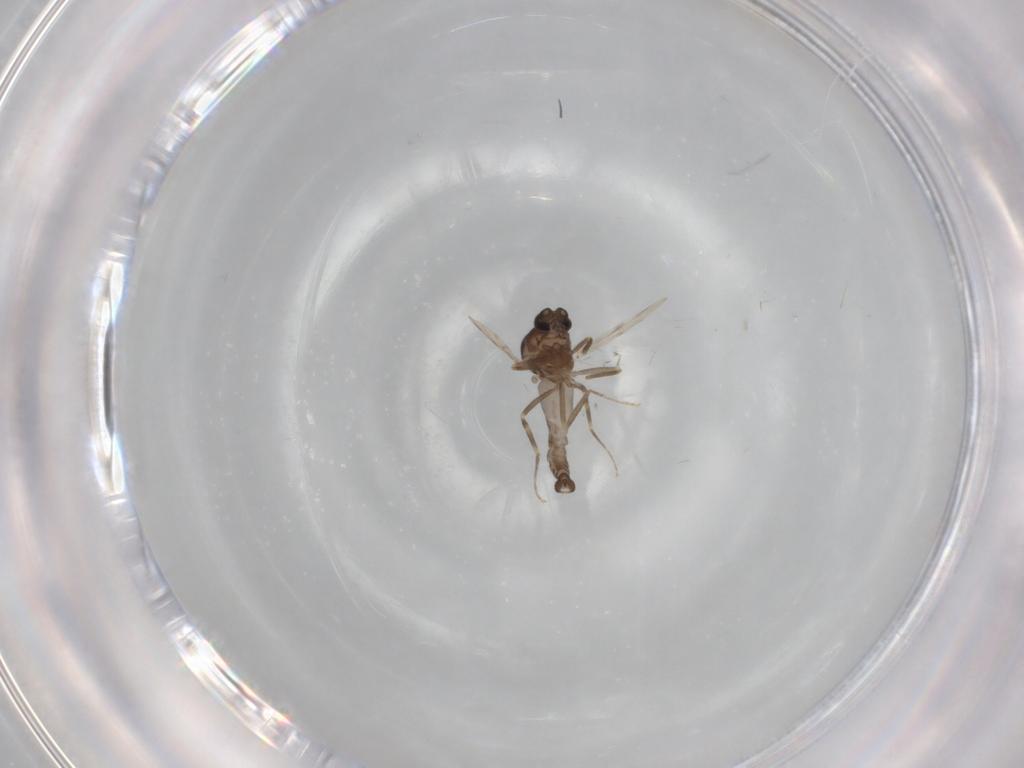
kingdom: Animalia
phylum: Arthropoda
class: Insecta
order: Diptera
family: Ceratopogonidae
